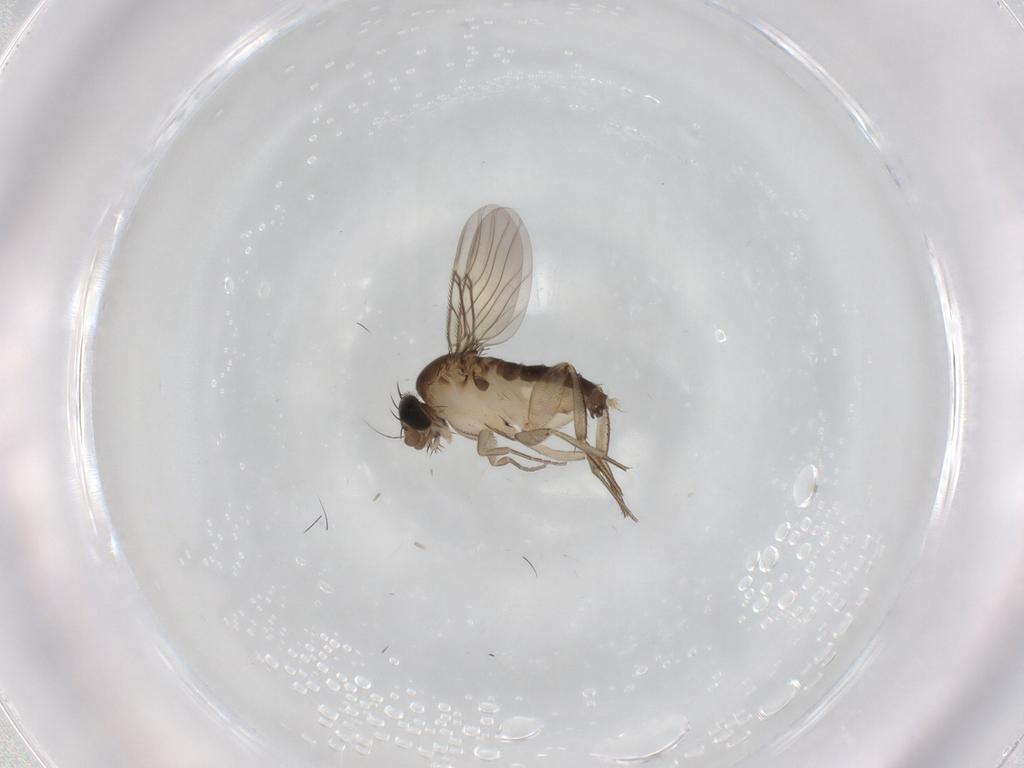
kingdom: Animalia
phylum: Arthropoda
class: Insecta
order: Diptera
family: Phoridae
